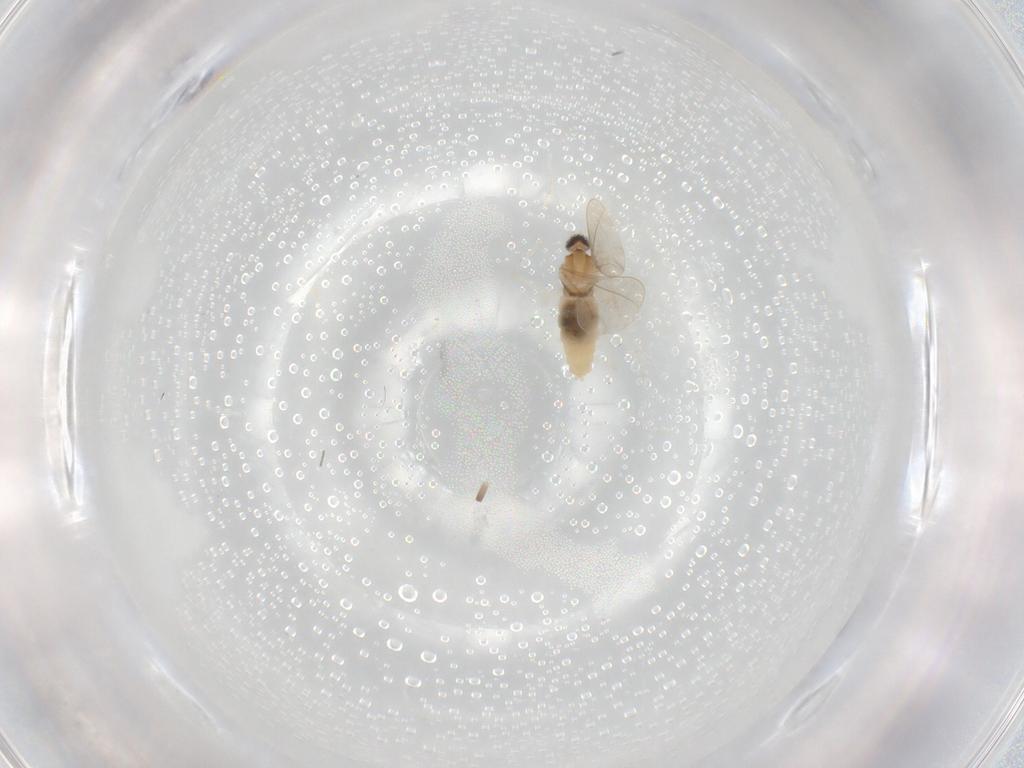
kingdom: Animalia
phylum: Arthropoda
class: Insecta
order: Diptera
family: Cecidomyiidae
